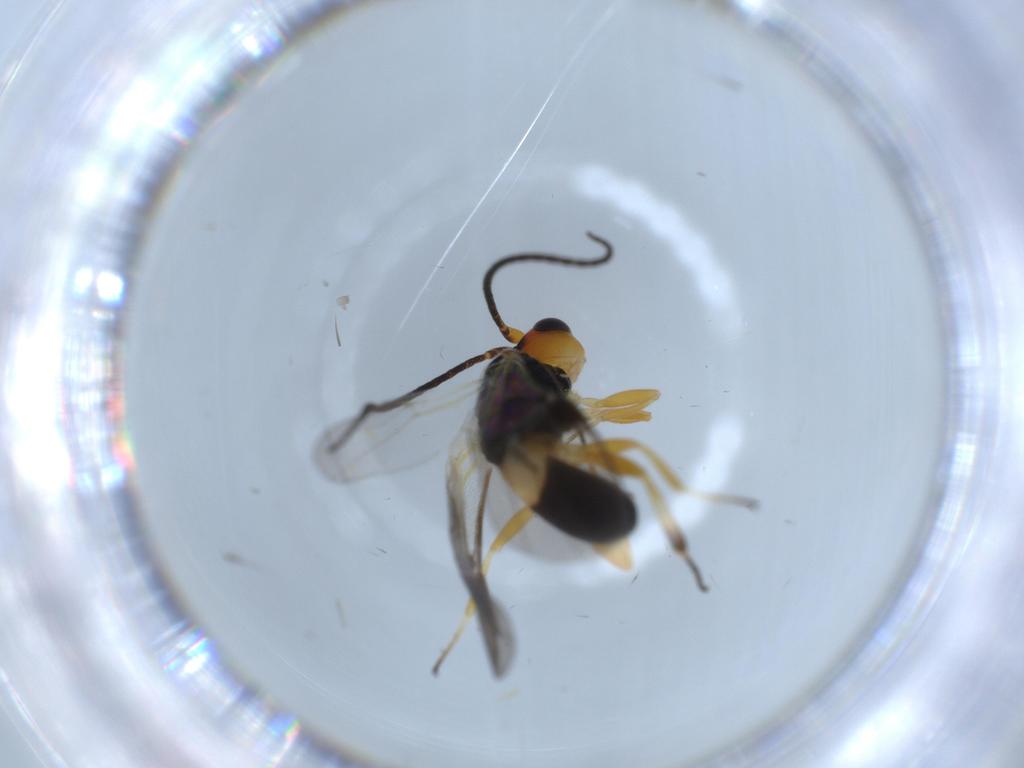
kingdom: Animalia
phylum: Arthropoda
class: Insecta
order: Hymenoptera
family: Braconidae
